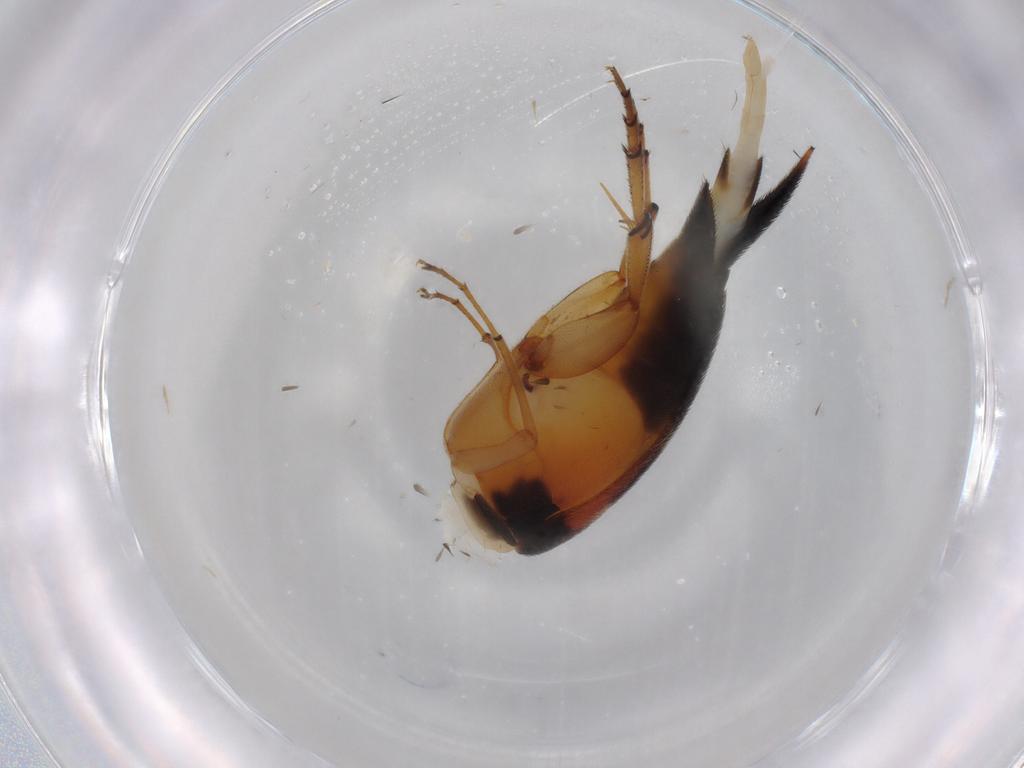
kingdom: Animalia
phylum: Arthropoda
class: Insecta
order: Coleoptera
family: Mordellidae
